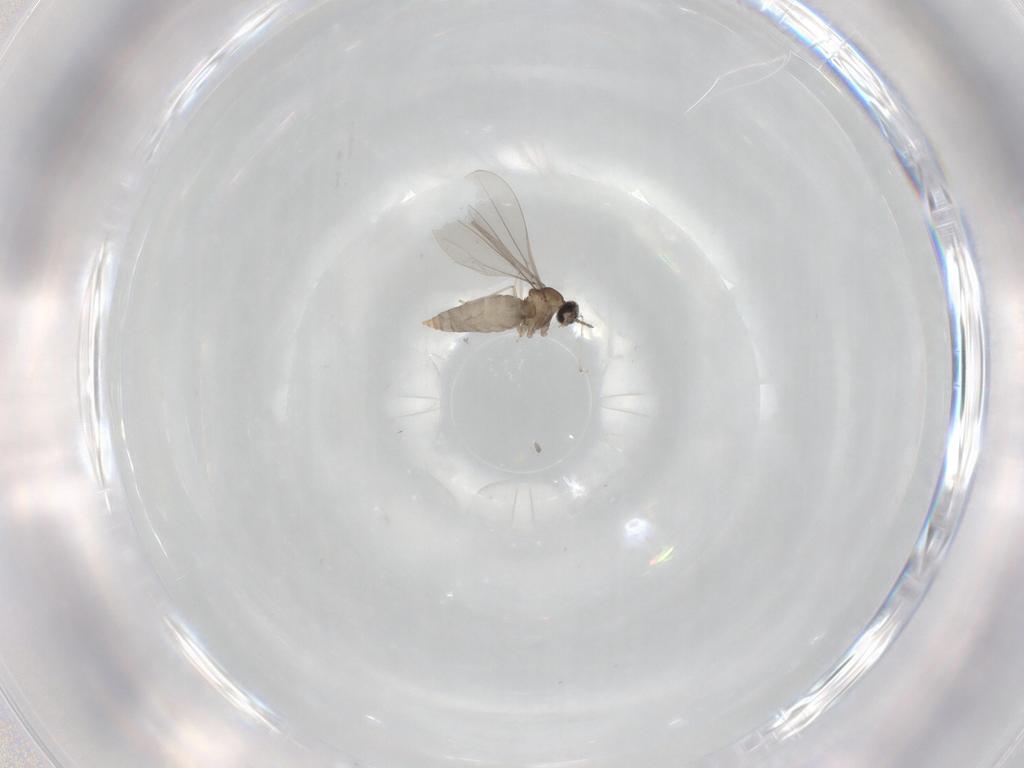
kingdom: Animalia
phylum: Arthropoda
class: Insecta
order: Diptera
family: Cecidomyiidae
